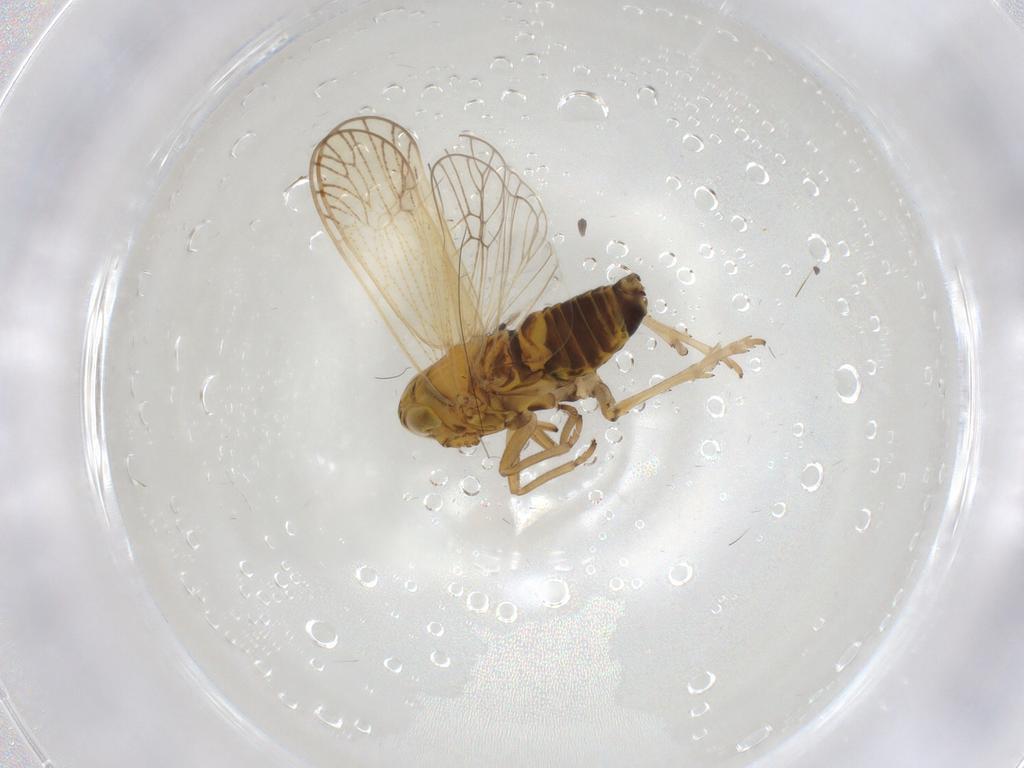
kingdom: Animalia
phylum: Arthropoda
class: Insecta
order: Hemiptera
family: Delphacidae
